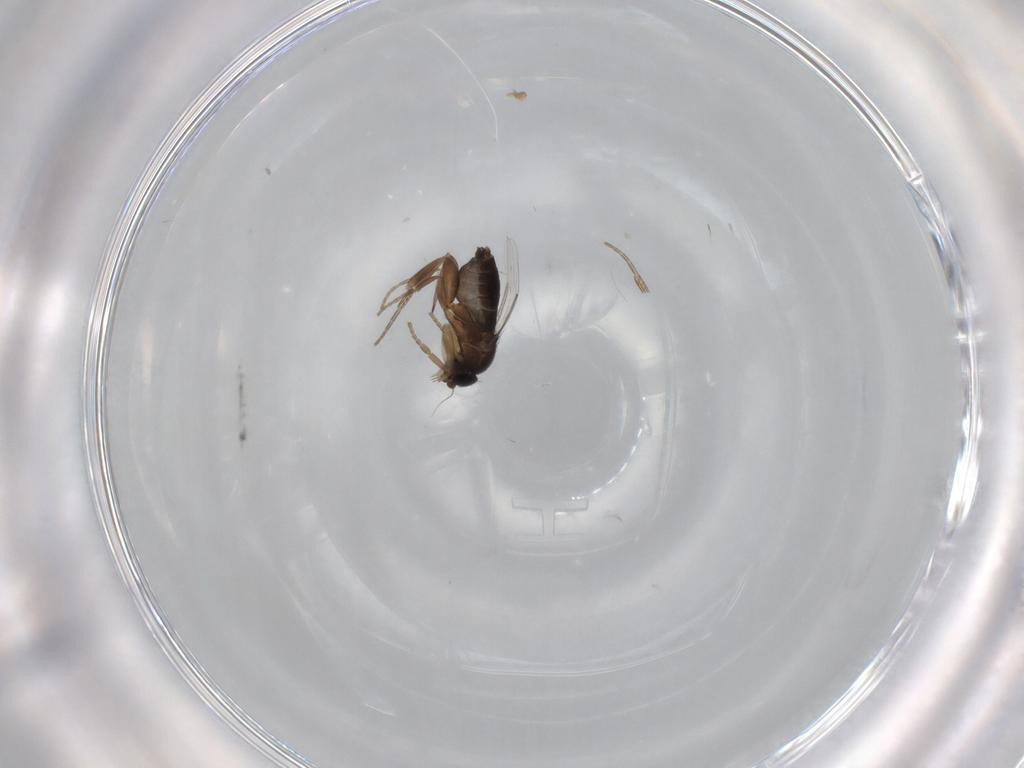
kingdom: Animalia
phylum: Arthropoda
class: Insecta
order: Diptera
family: Phoridae
